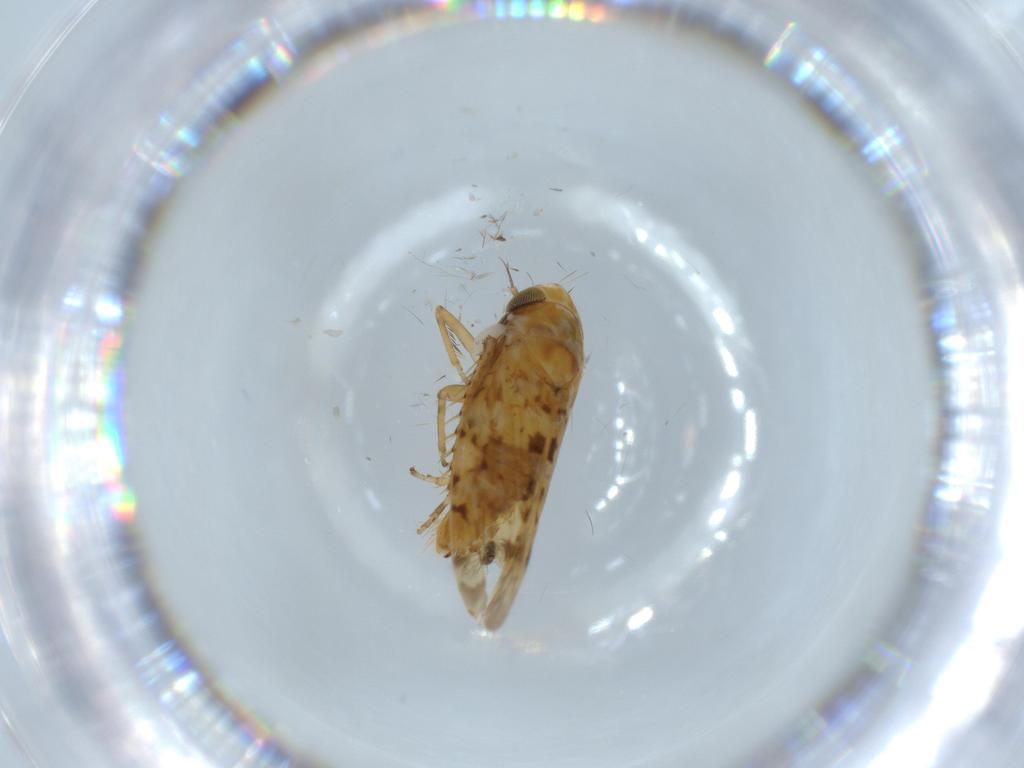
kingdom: Animalia
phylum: Arthropoda
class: Insecta
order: Hemiptera
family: Cicadellidae
